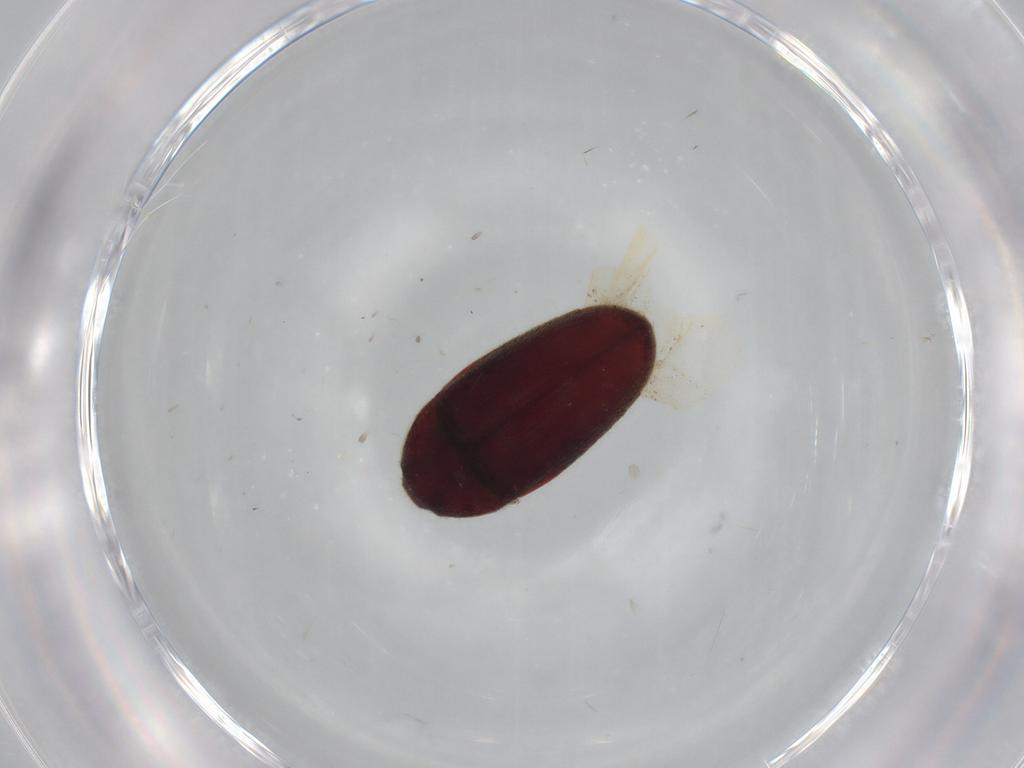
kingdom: Animalia
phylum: Arthropoda
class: Insecta
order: Coleoptera
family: Throscidae
